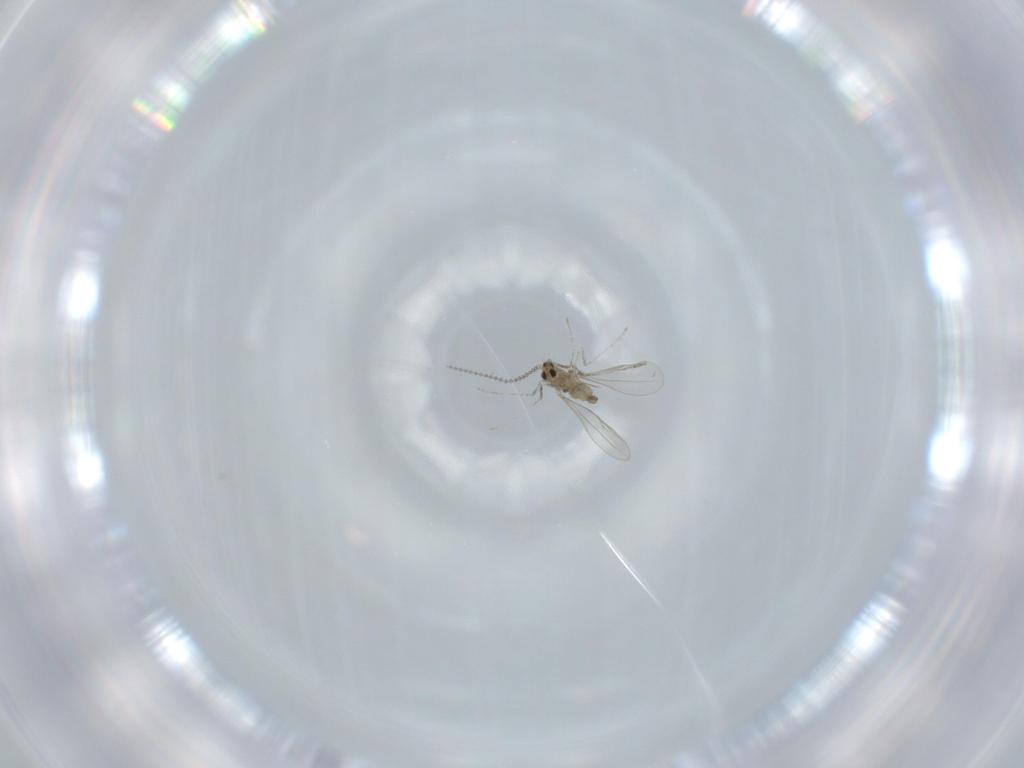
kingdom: Animalia
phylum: Arthropoda
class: Insecta
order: Diptera
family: Cecidomyiidae
